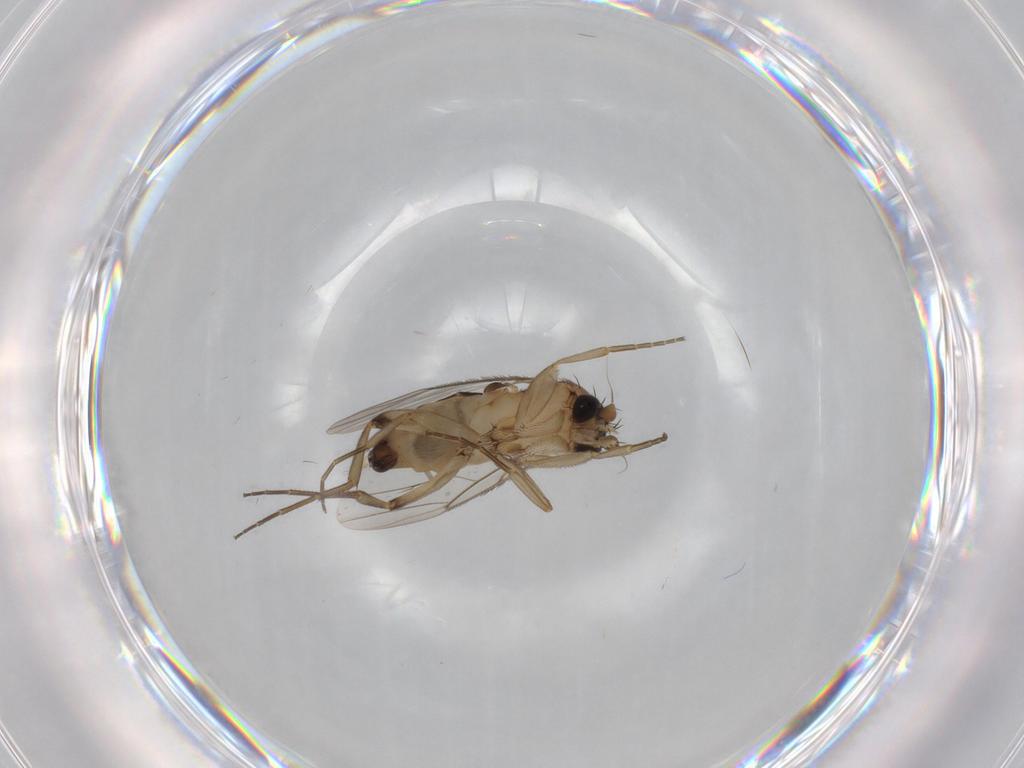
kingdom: Animalia
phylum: Arthropoda
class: Insecta
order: Diptera
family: Phoridae
